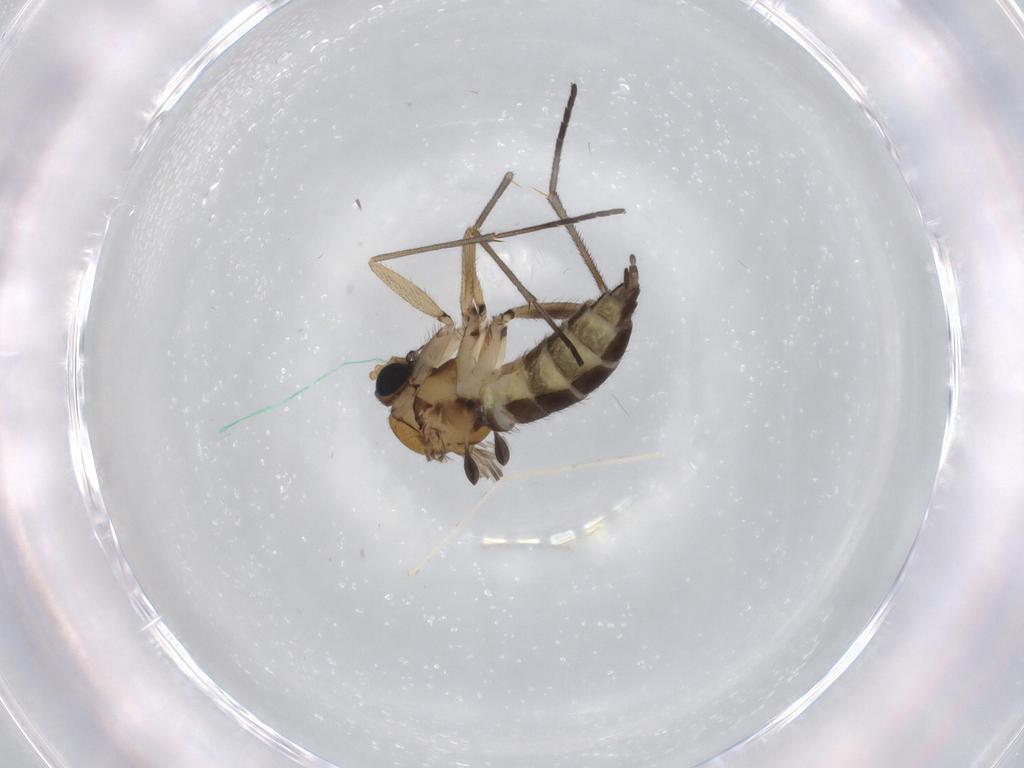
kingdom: Animalia
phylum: Arthropoda
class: Insecta
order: Diptera
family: Sciaridae
